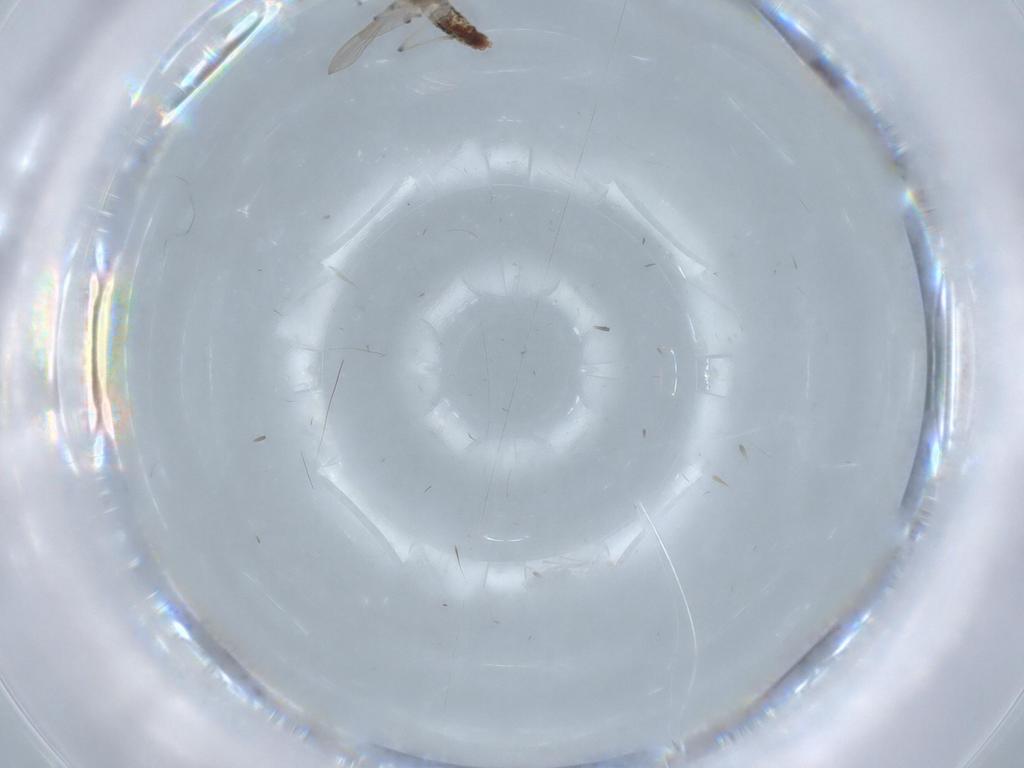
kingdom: Animalia
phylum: Arthropoda
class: Insecta
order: Diptera
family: Chironomidae
